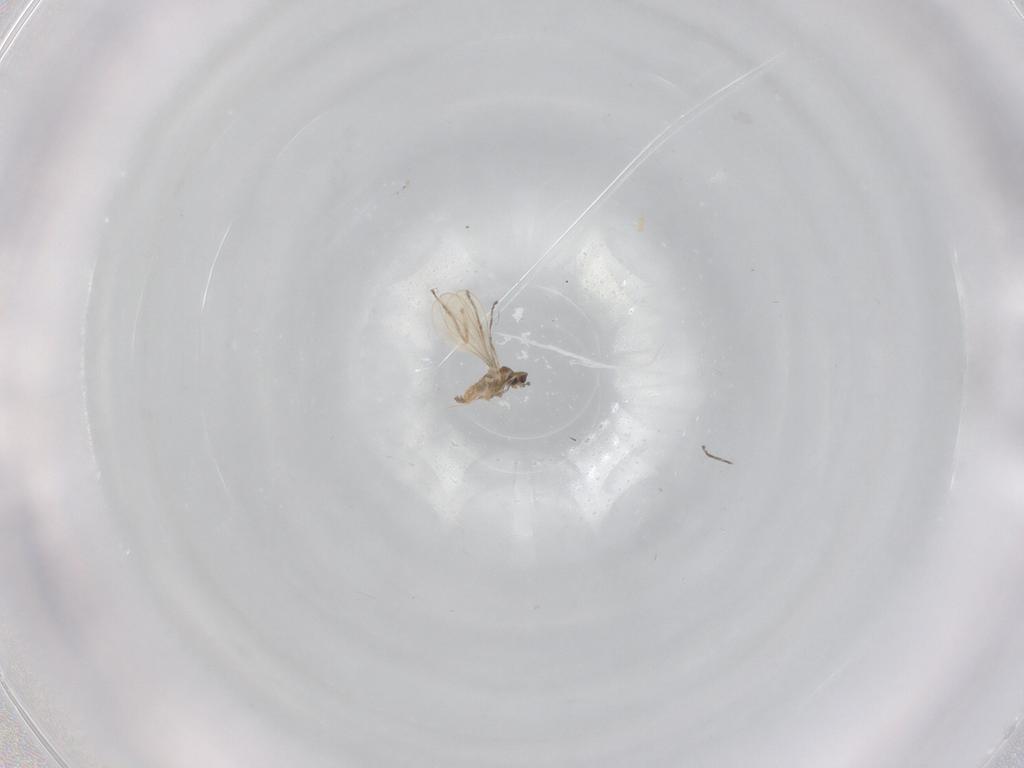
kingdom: Animalia
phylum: Arthropoda
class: Insecta
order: Diptera
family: Cecidomyiidae
